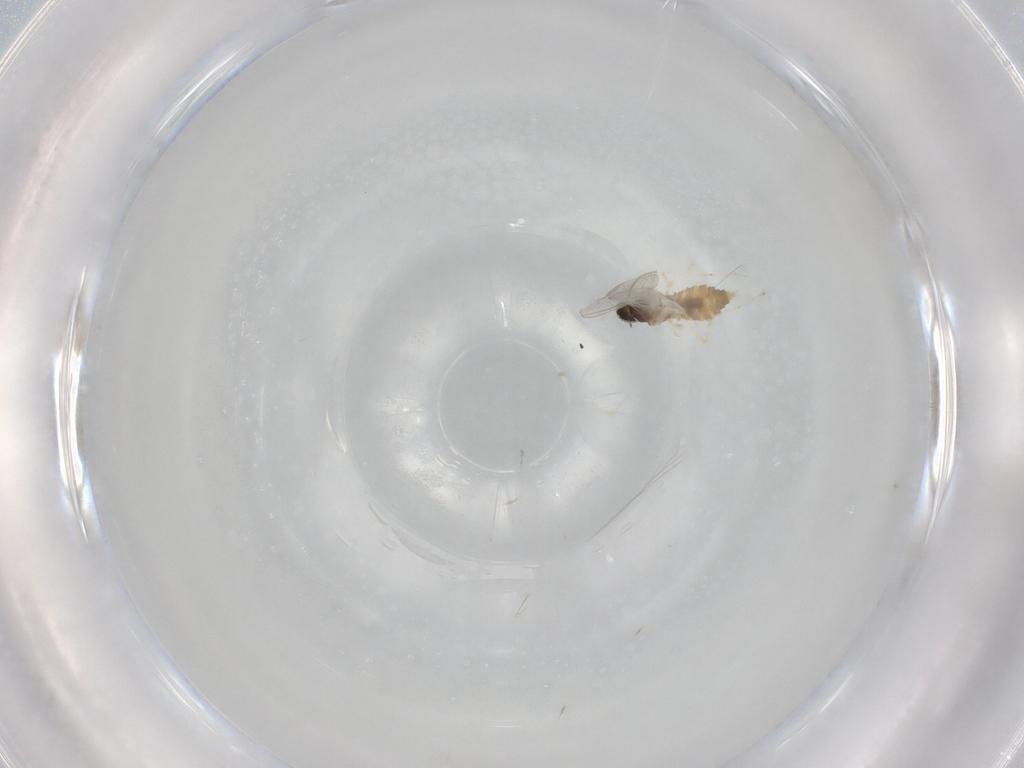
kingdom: Animalia
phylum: Arthropoda
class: Insecta
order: Diptera
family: Cecidomyiidae
